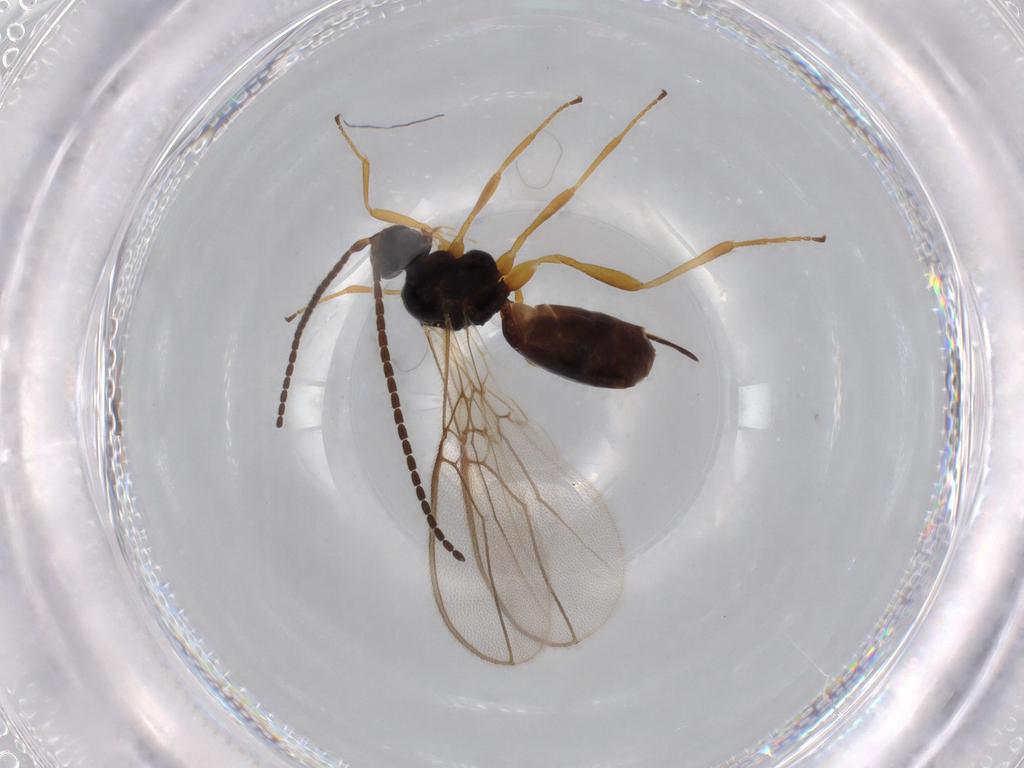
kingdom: Animalia
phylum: Arthropoda
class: Insecta
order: Hymenoptera
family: Braconidae
